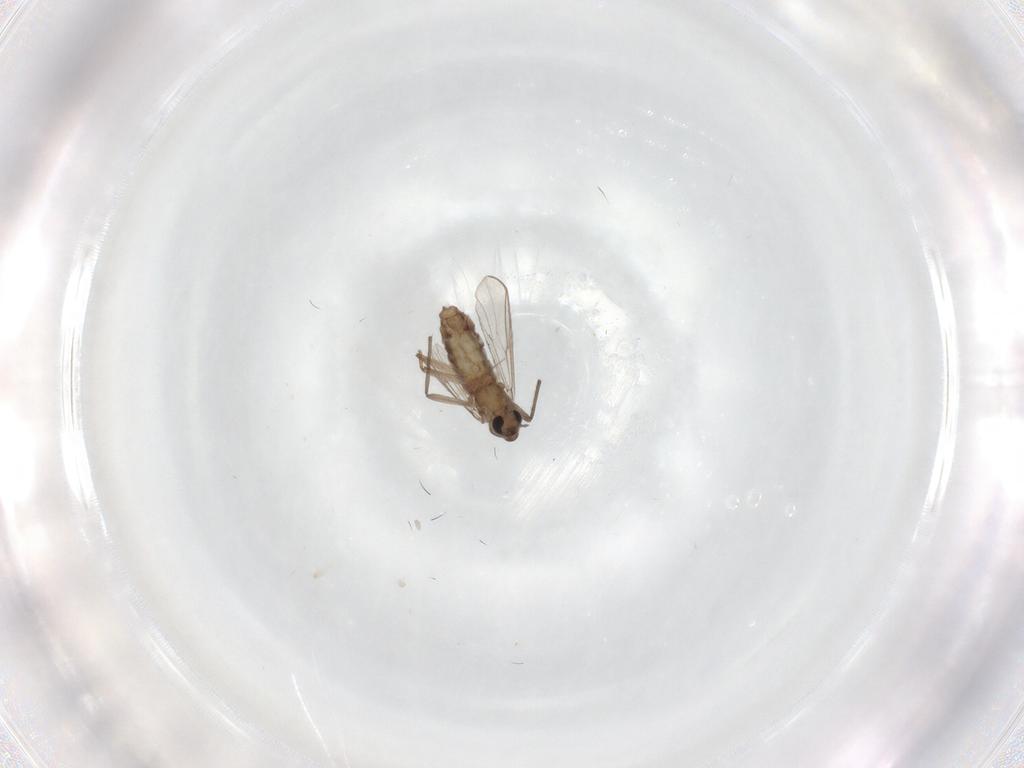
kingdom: Animalia
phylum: Arthropoda
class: Insecta
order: Diptera
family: Chironomidae
